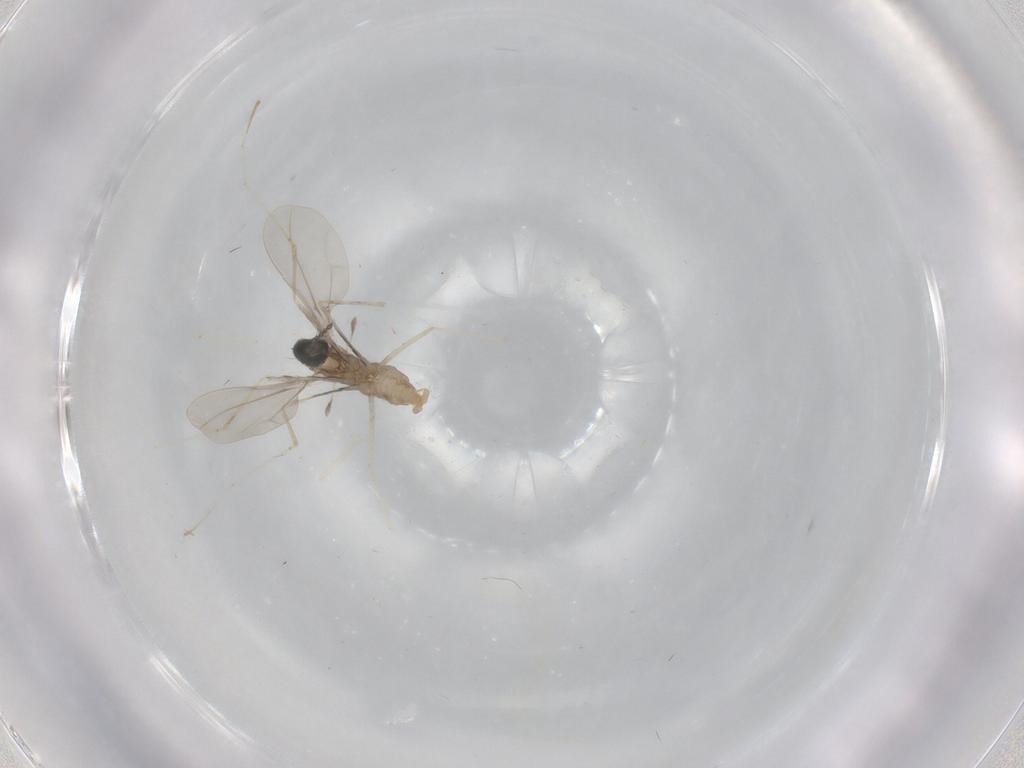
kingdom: Animalia
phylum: Arthropoda
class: Insecta
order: Diptera
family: Cecidomyiidae
